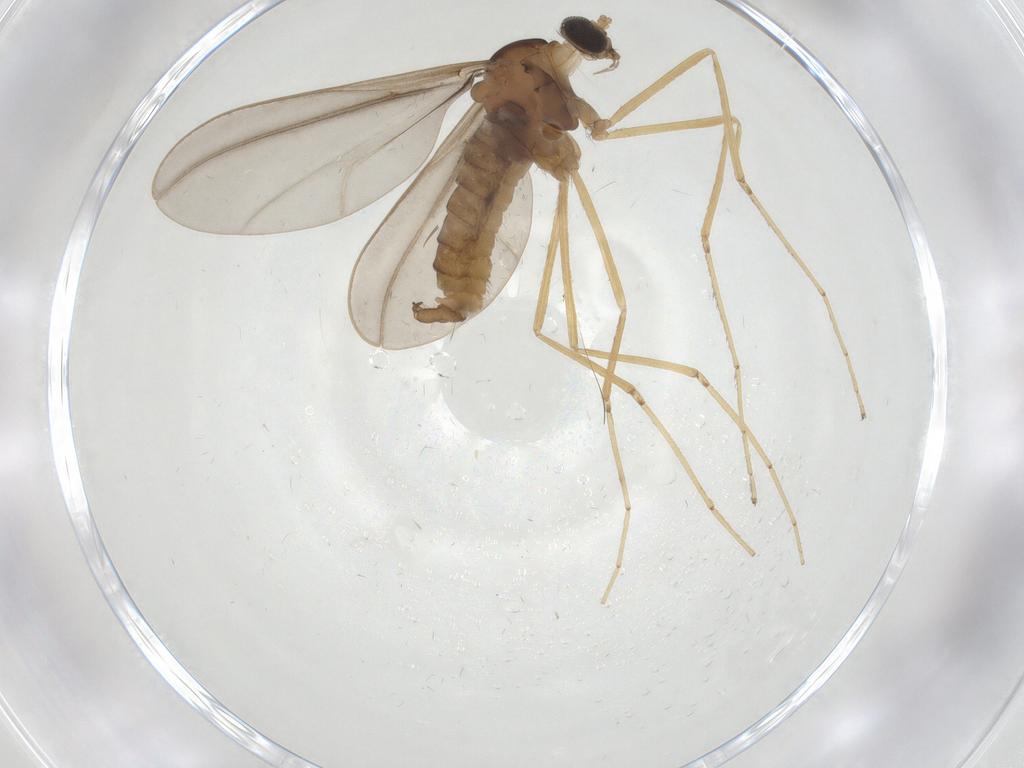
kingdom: Animalia
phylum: Arthropoda
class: Insecta
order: Diptera
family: Cecidomyiidae
